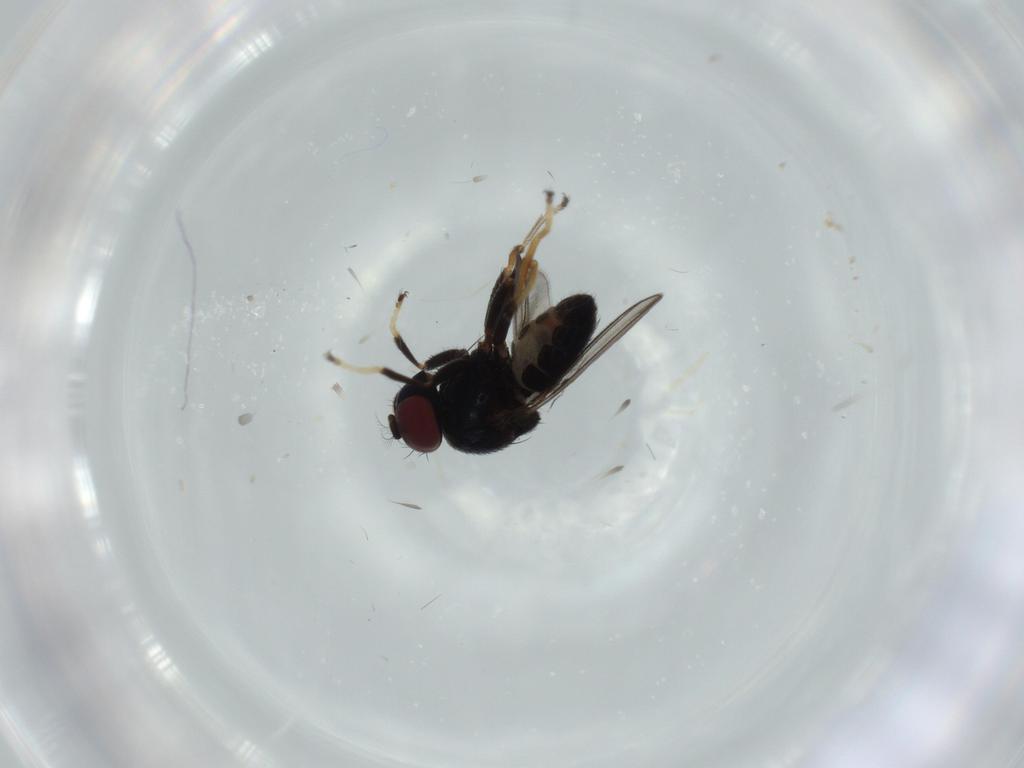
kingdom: Animalia
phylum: Arthropoda
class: Insecta
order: Diptera
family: Ephydridae
